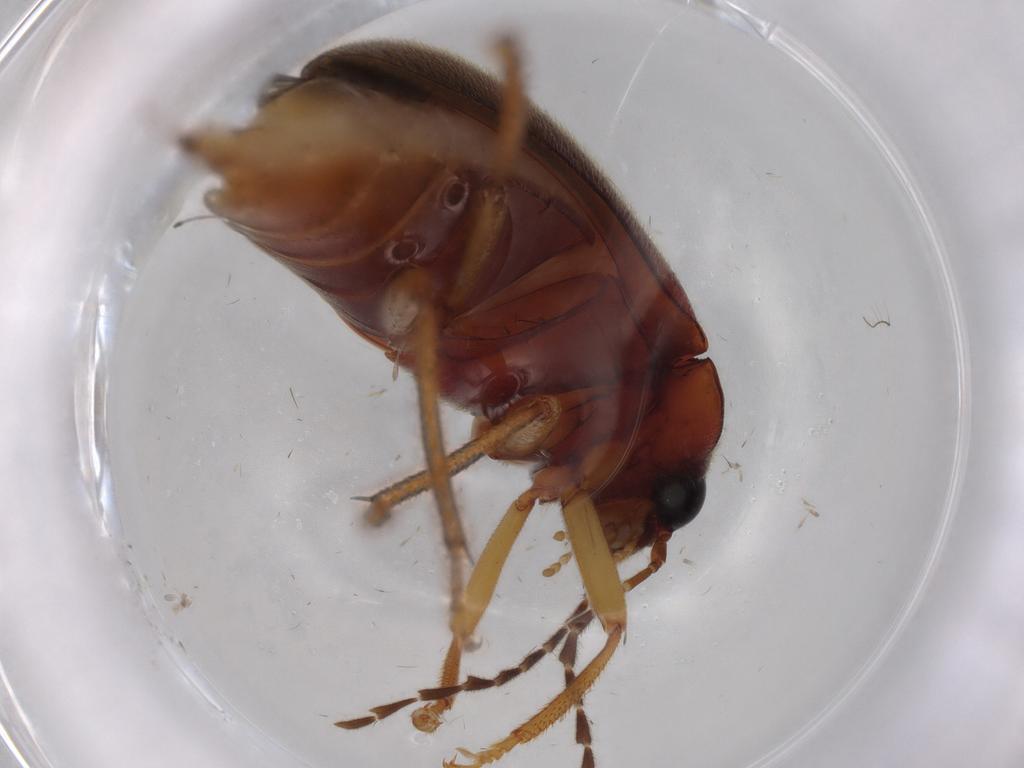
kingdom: Animalia
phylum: Arthropoda
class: Insecta
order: Coleoptera
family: Ptilodactylidae
